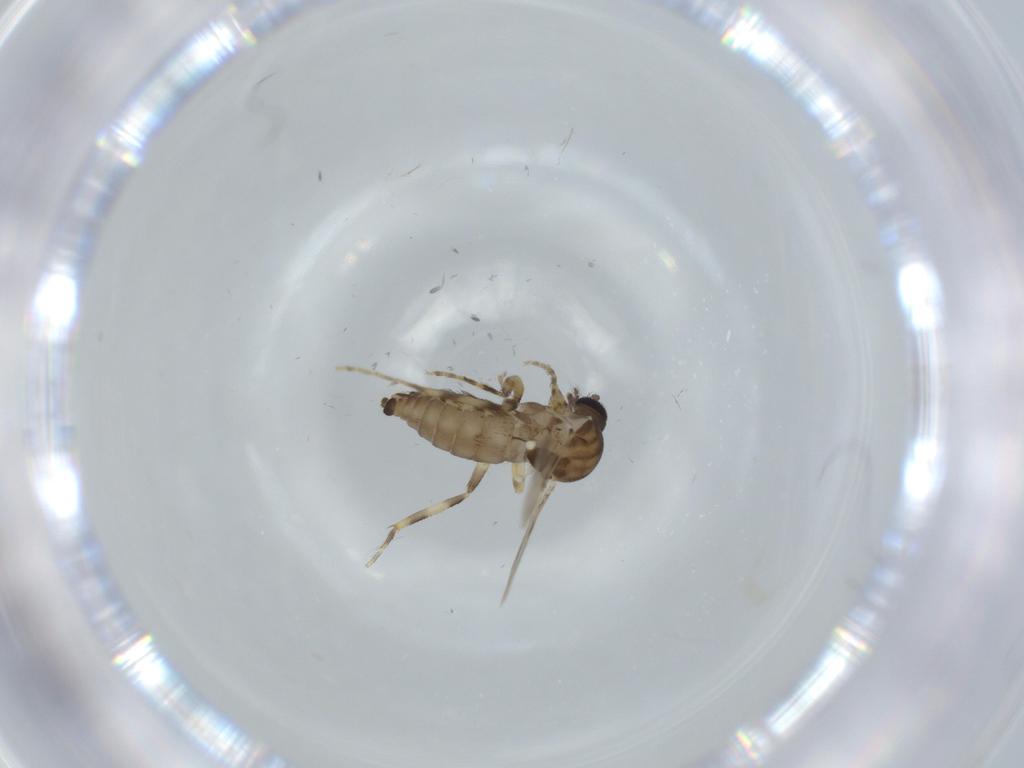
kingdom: Animalia
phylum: Arthropoda
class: Insecta
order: Diptera
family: Ceratopogonidae
